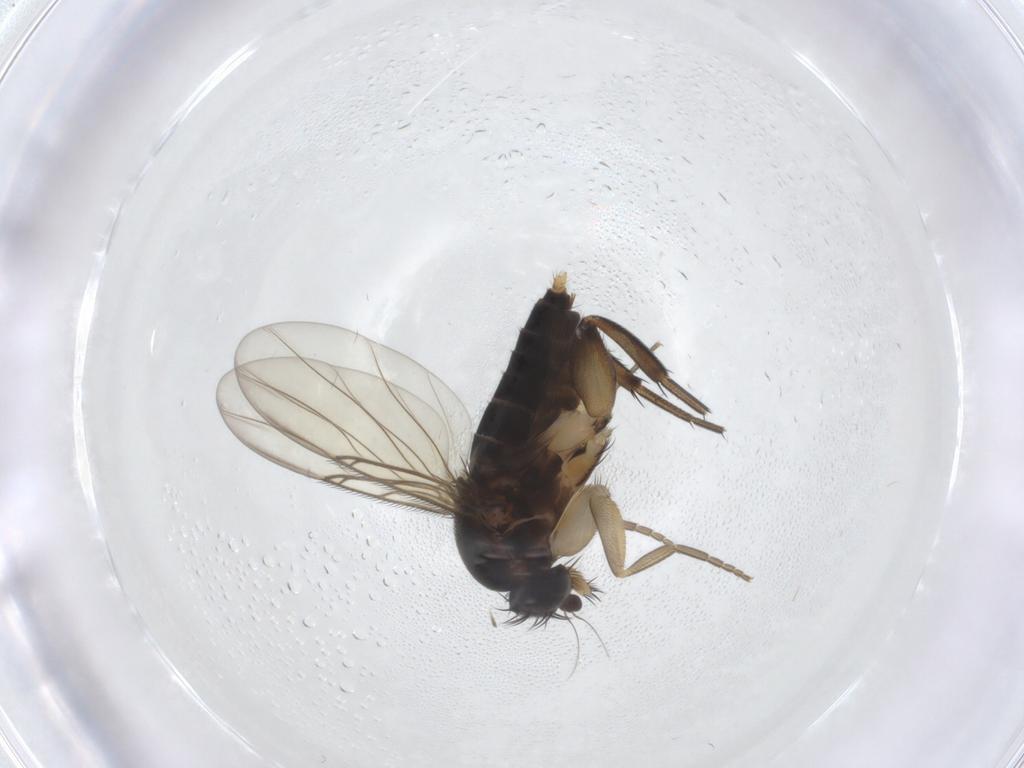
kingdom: Animalia
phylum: Arthropoda
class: Insecta
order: Diptera
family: Phoridae
